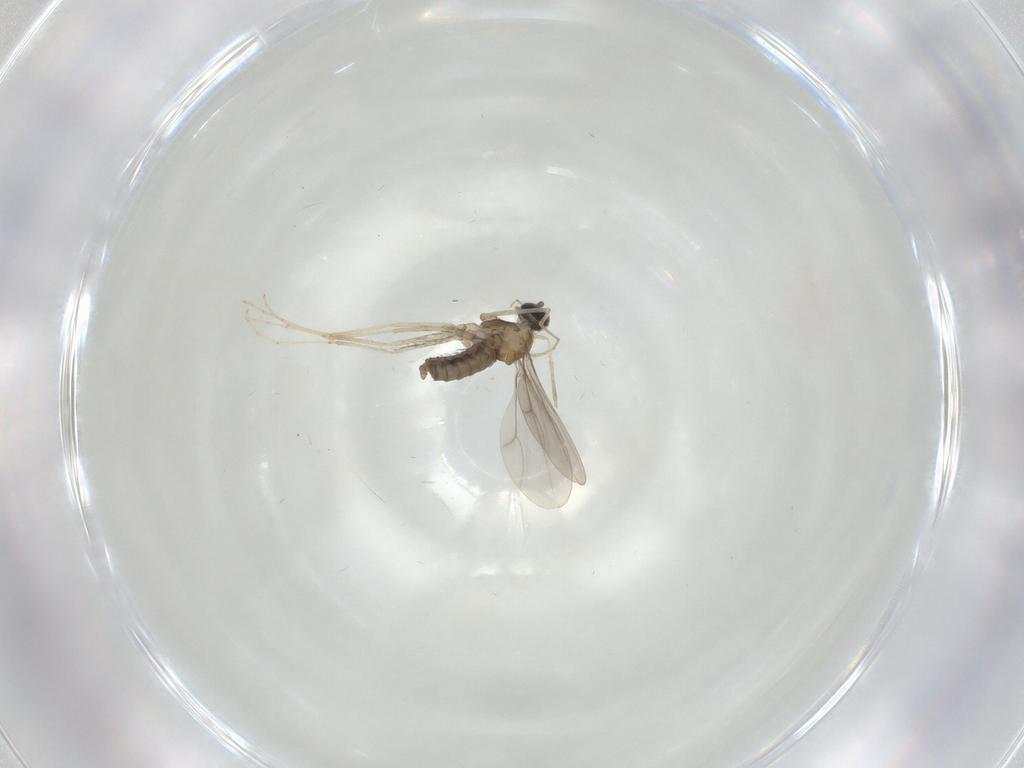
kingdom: Animalia
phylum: Arthropoda
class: Insecta
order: Diptera
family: Cecidomyiidae
